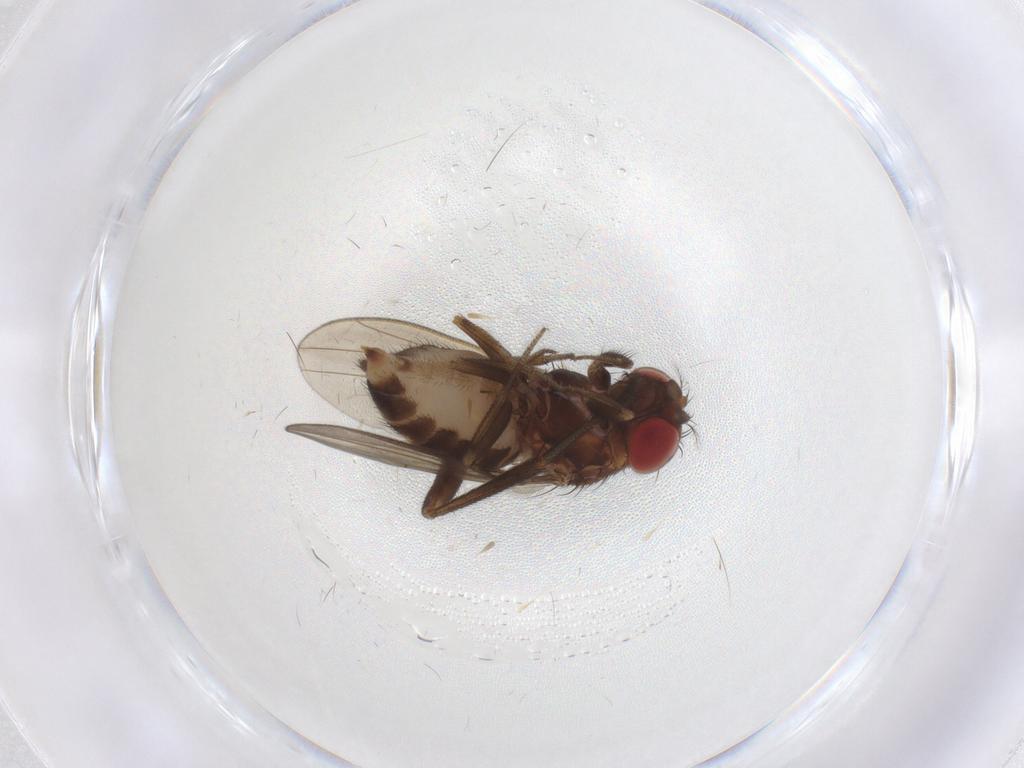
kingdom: Animalia
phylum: Arthropoda
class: Insecta
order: Diptera
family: Drosophilidae
